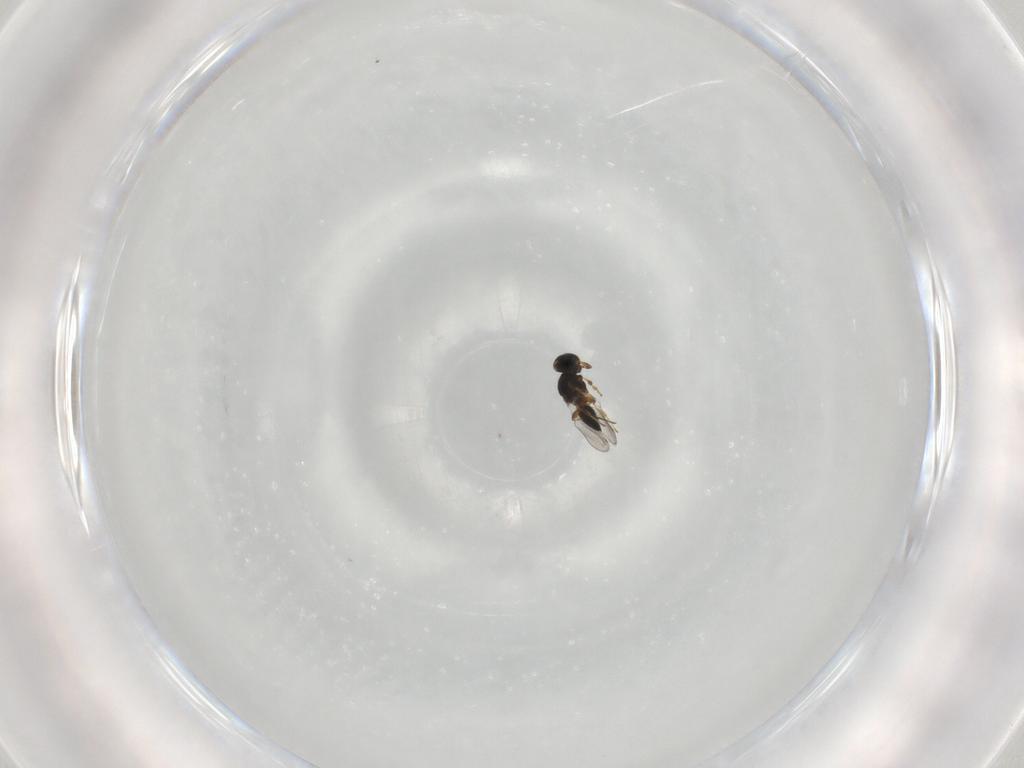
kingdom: Animalia
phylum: Arthropoda
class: Insecta
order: Hymenoptera
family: Platygastridae
